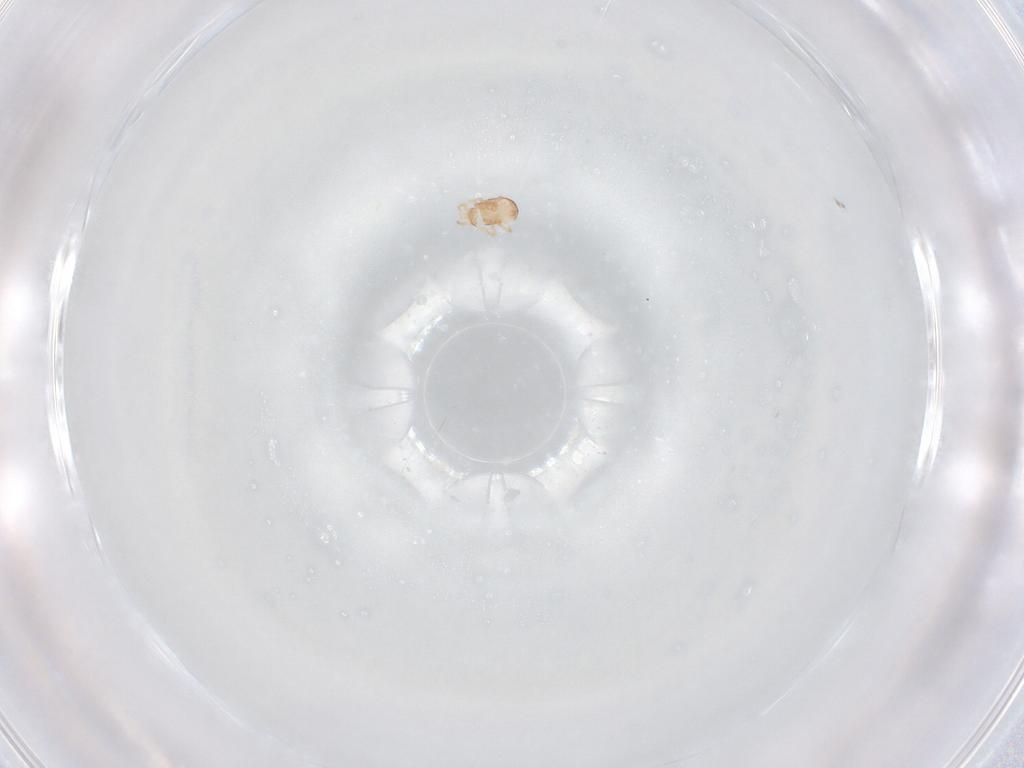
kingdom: Animalia
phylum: Arthropoda
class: Arachnida
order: Mesostigmata
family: Ascidae
